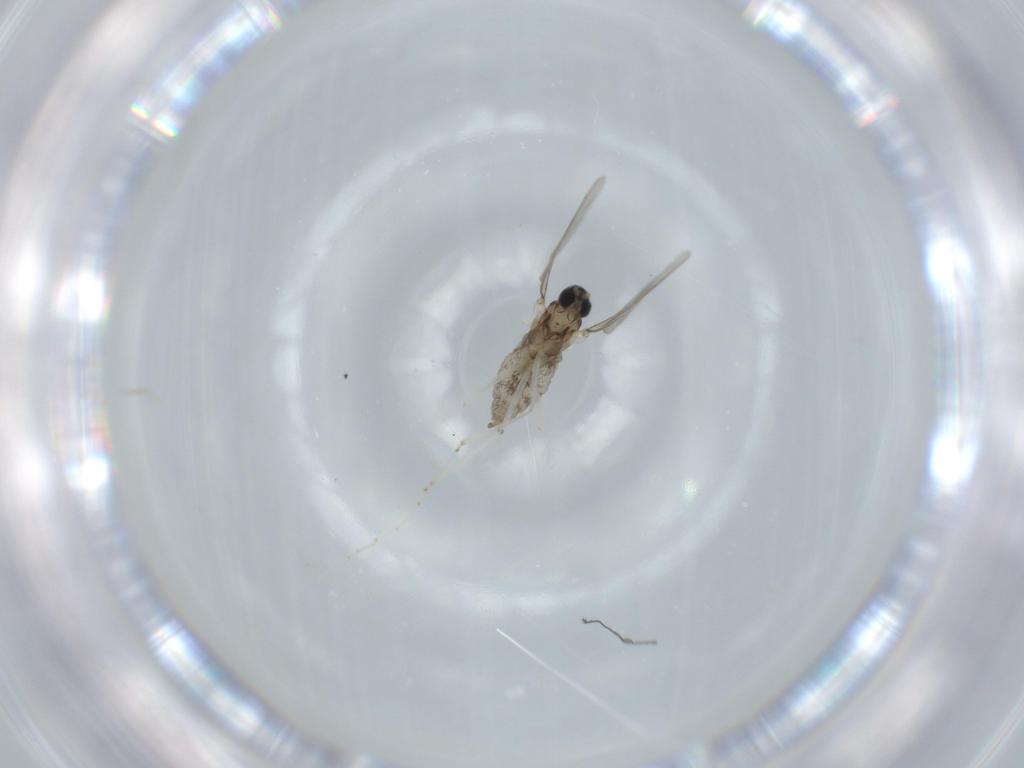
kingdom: Animalia
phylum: Arthropoda
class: Insecta
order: Diptera
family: Cecidomyiidae
